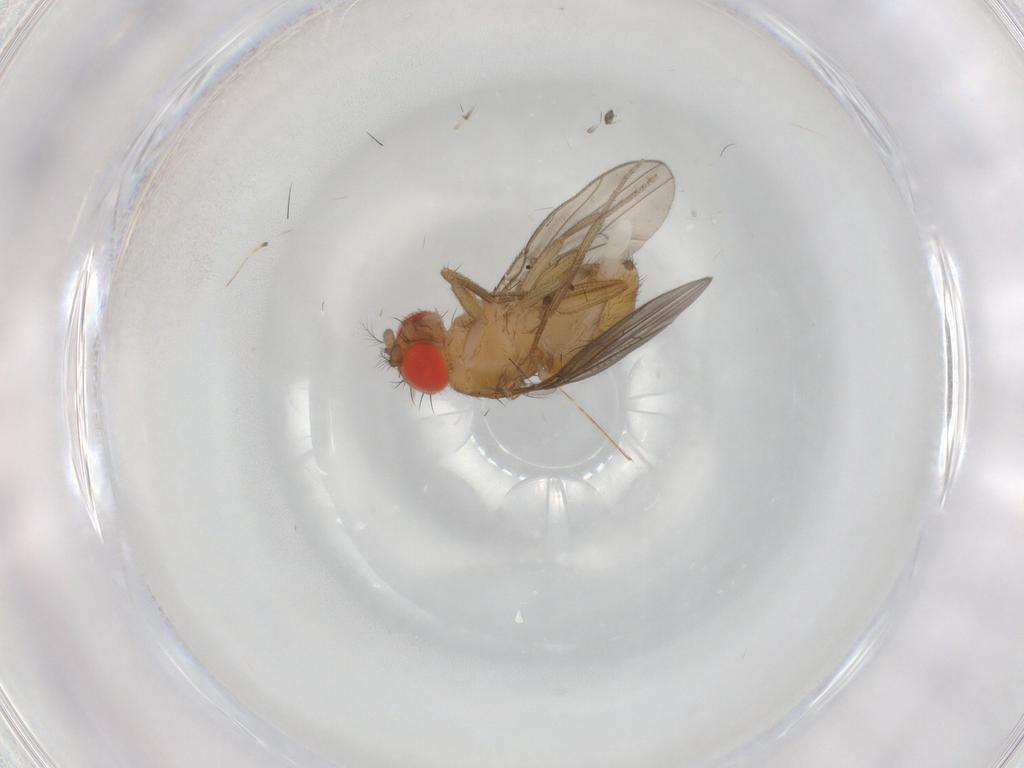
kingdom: Animalia
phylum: Arthropoda
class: Insecta
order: Diptera
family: Drosophilidae
